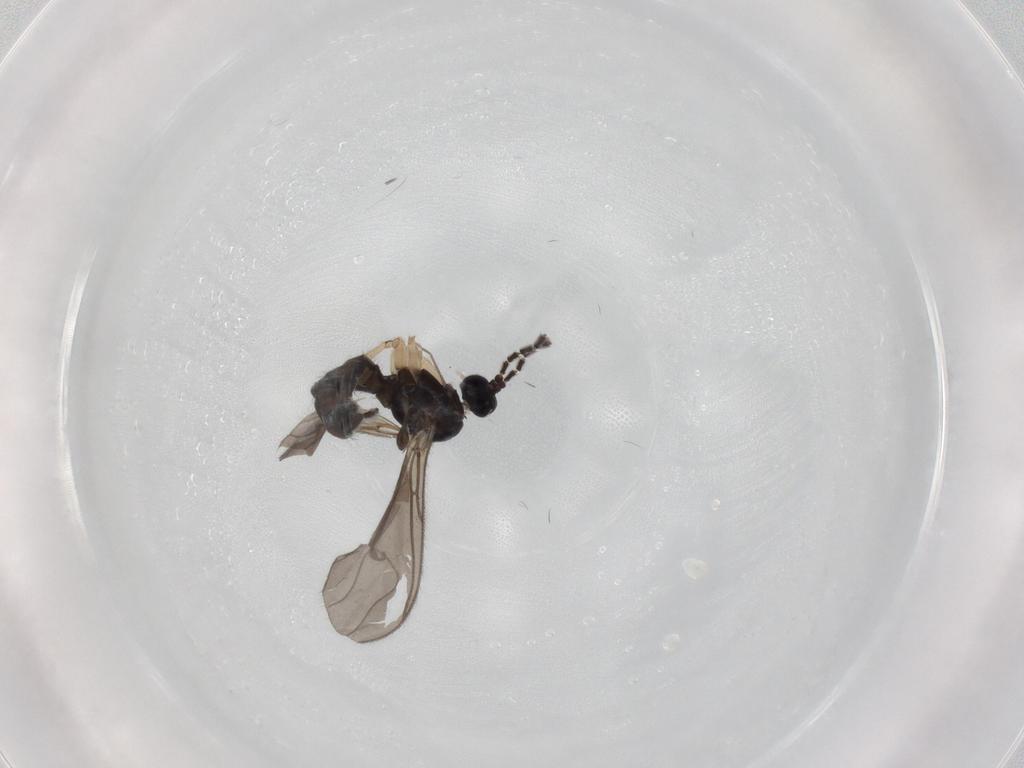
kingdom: Animalia
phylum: Arthropoda
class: Insecta
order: Diptera
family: Sciaridae
